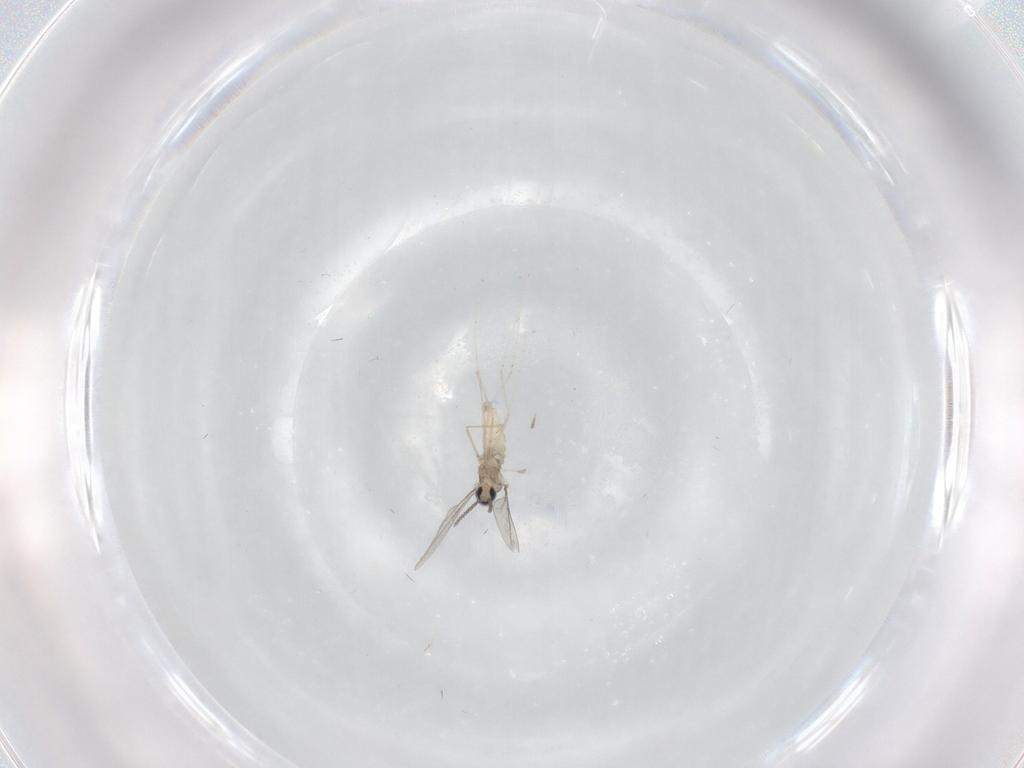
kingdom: Animalia
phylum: Arthropoda
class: Insecta
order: Diptera
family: Cecidomyiidae
